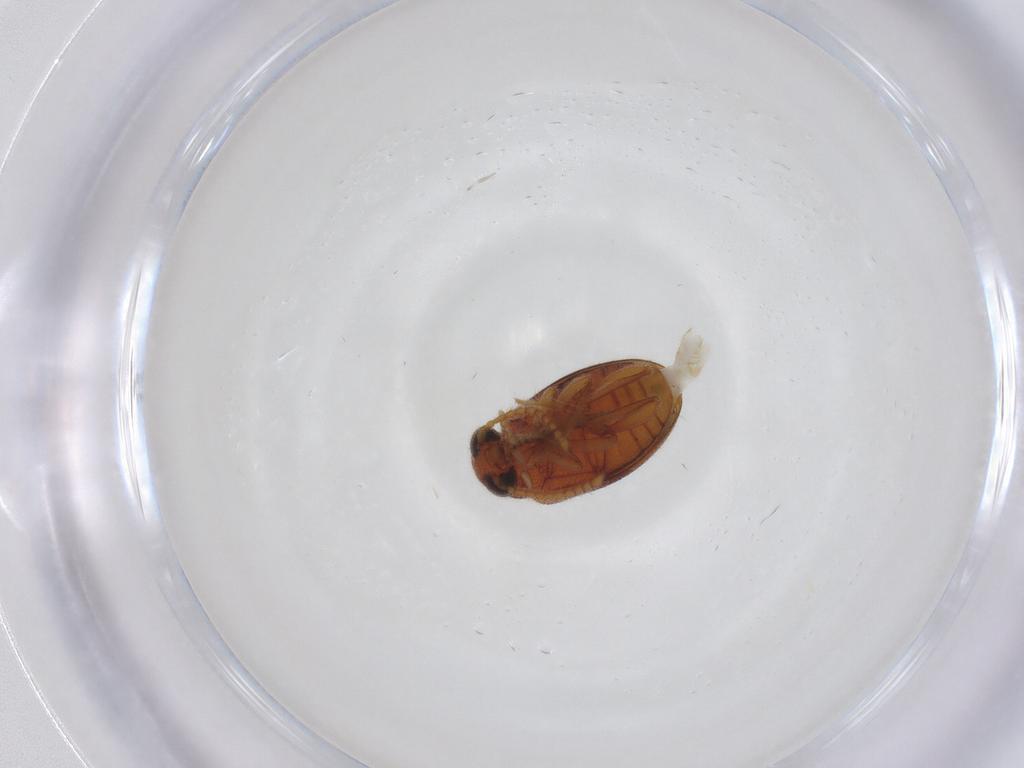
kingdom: Animalia
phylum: Arthropoda
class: Insecta
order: Coleoptera
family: Aderidae
